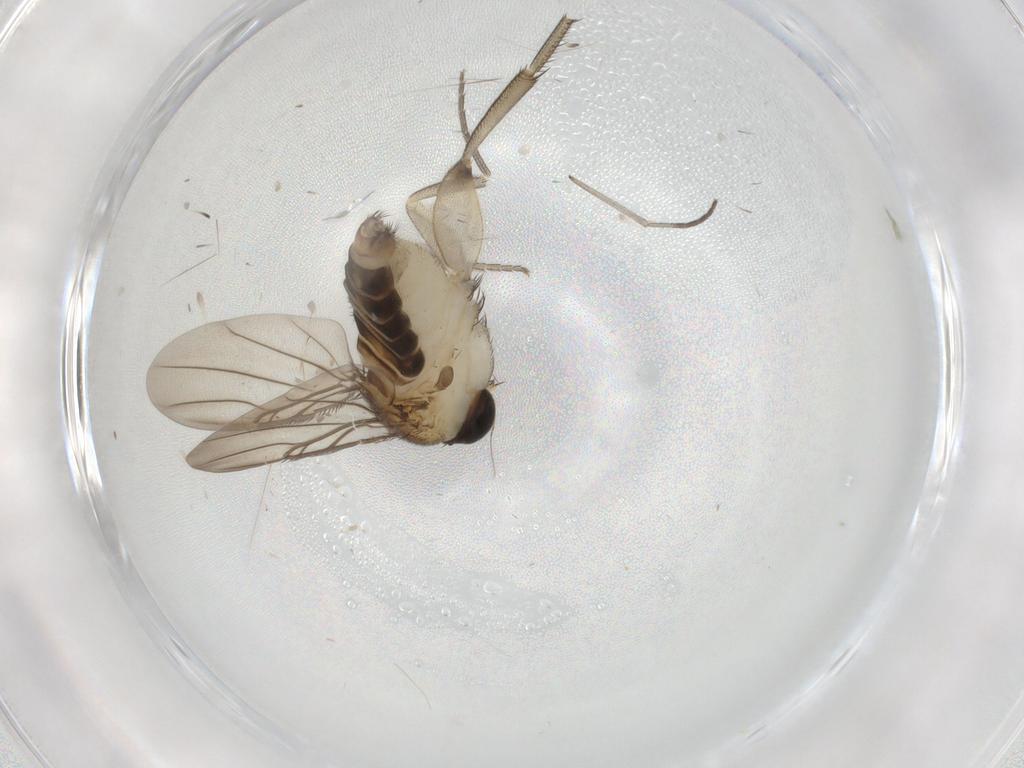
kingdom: Animalia
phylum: Arthropoda
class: Insecta
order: Diptera
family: Phoridae
